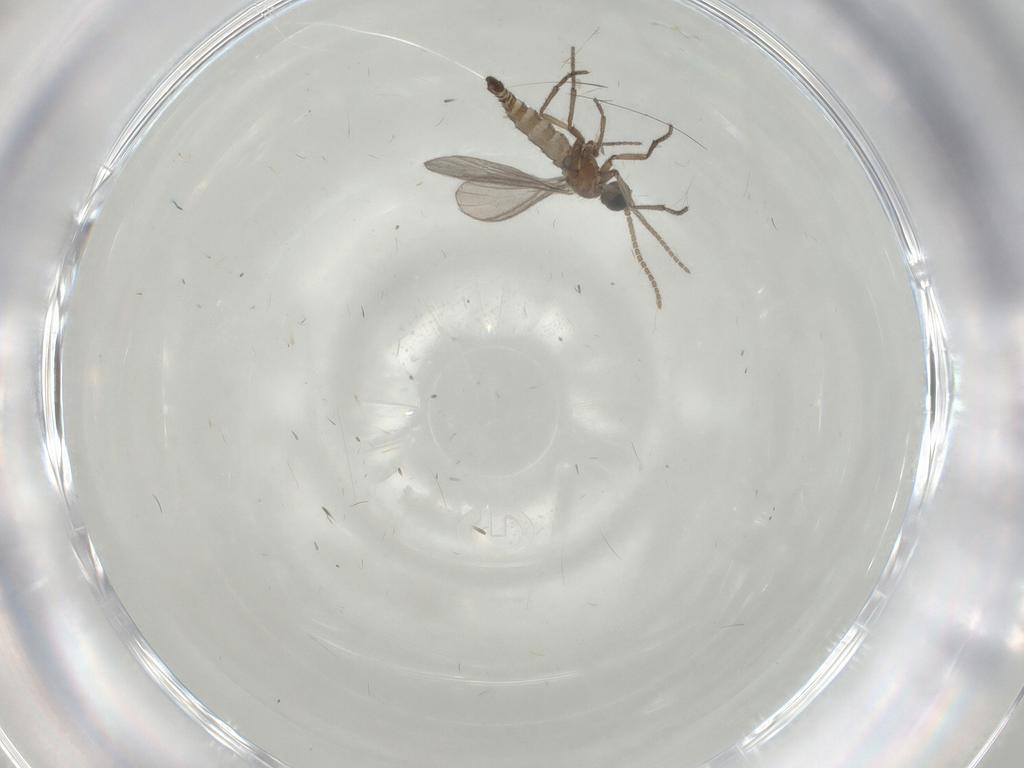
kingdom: Animalia
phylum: Arthropoda
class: Insecta
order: Diptera
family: Sciaridae
